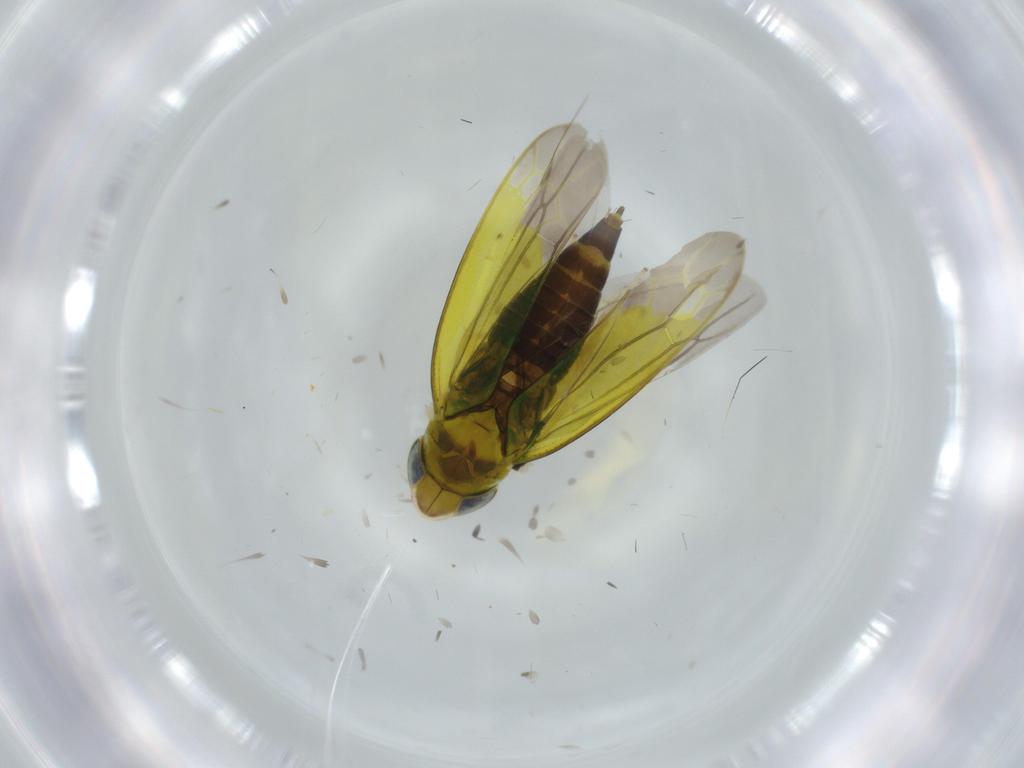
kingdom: Animalia
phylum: Arthropoda
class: Insecta
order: Hemiptera
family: Cicadellidae
